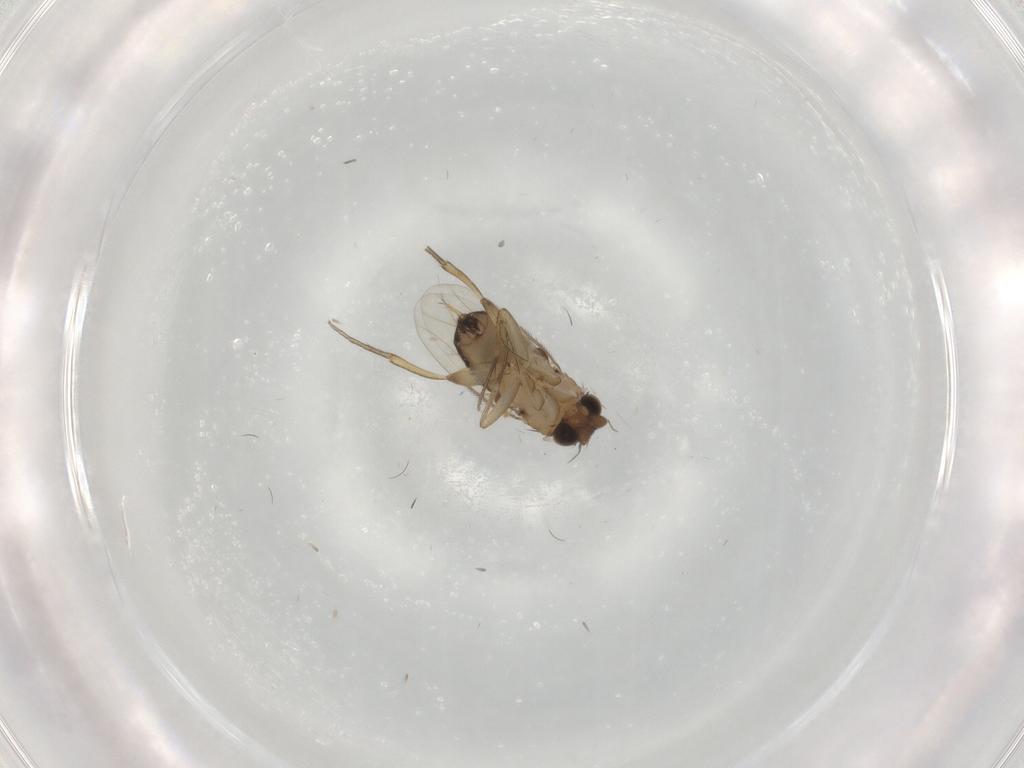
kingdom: Animalia
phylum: Arthropoda
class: Insecta
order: Diptera
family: Phoridae
